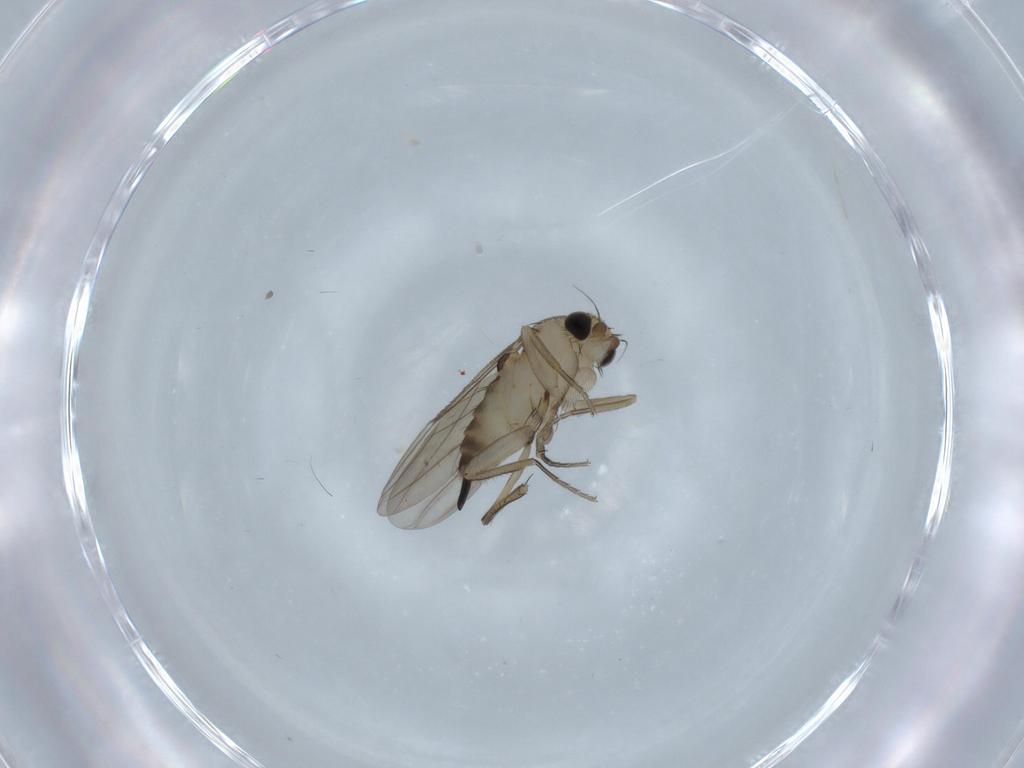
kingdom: Animalia
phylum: Arthropoda
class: Insecta
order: Diptera
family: Phoridae
